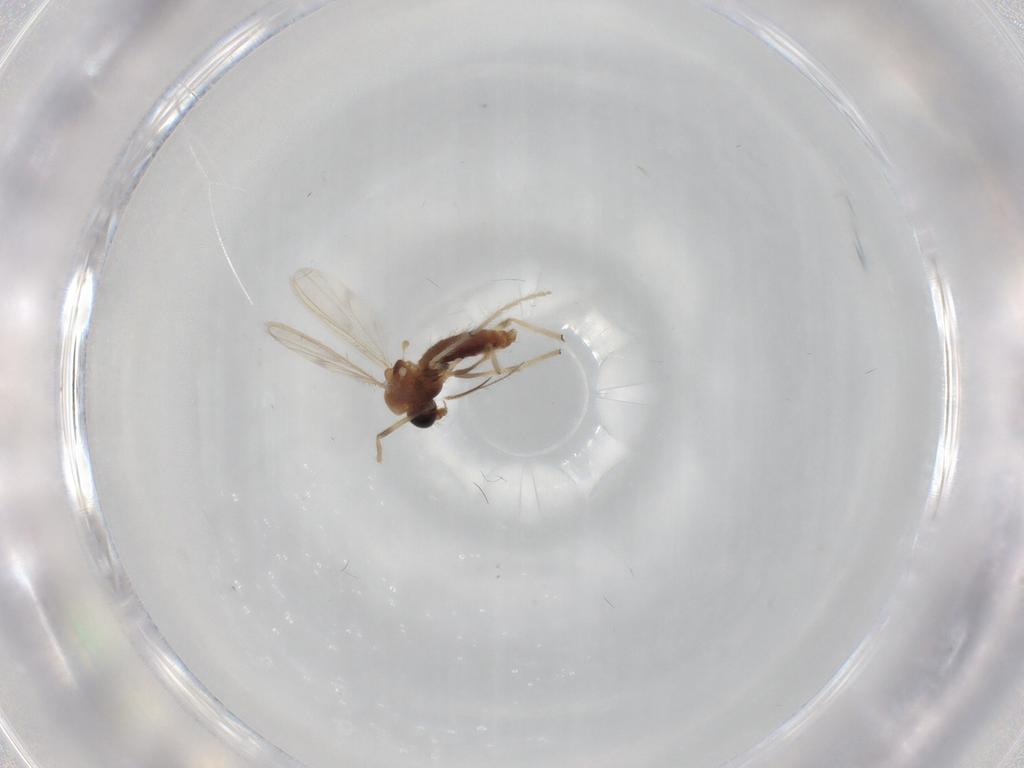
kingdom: Animalia
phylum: Arthropoda
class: Insecta
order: Diptera
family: Chironomidae
